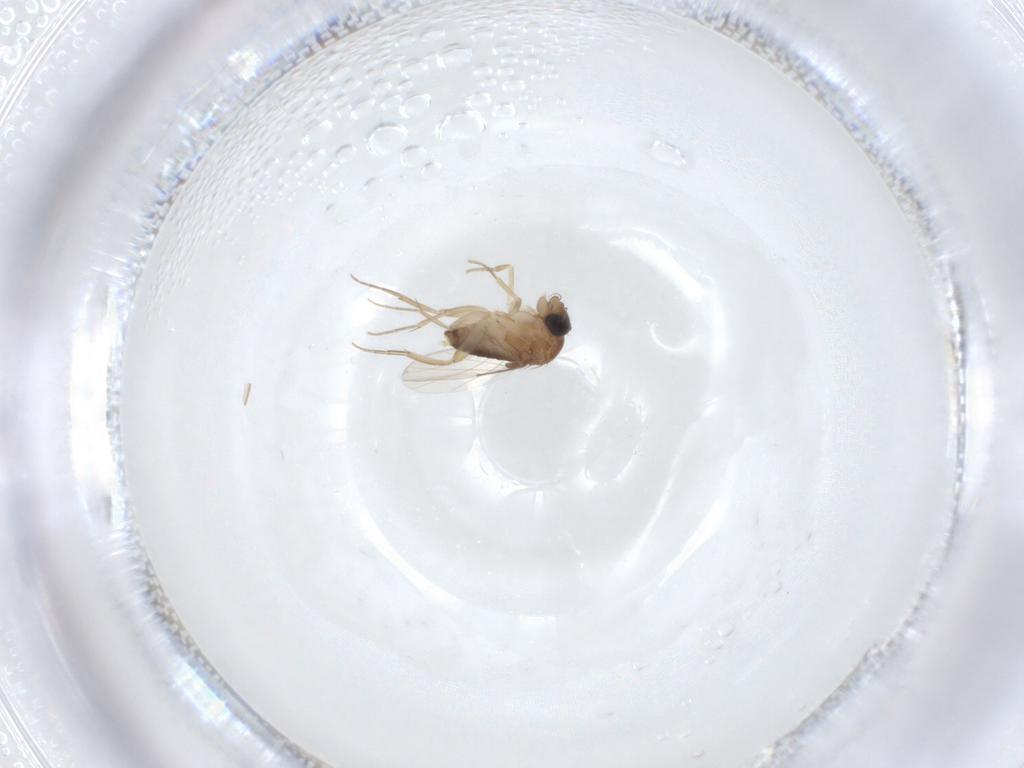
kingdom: Animalia
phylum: Arthropoda
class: Insecta
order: Diptera
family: Phoridae
